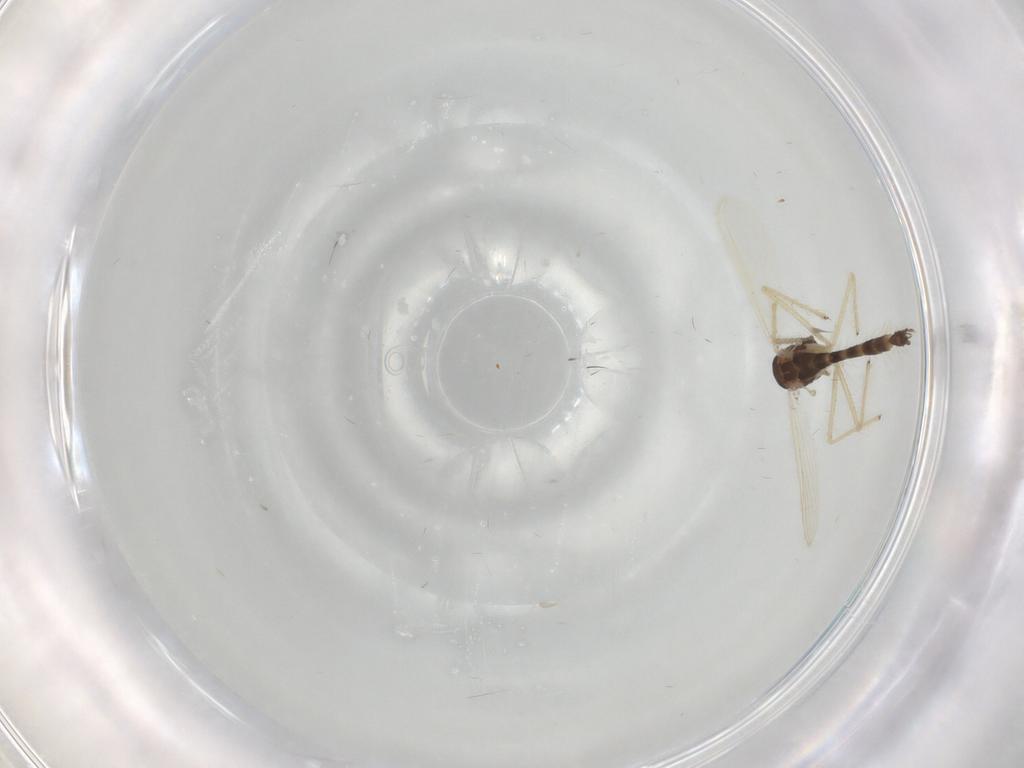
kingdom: Animalia
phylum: Arthropoda
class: Insecta
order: Diptera
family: Chironomidae
